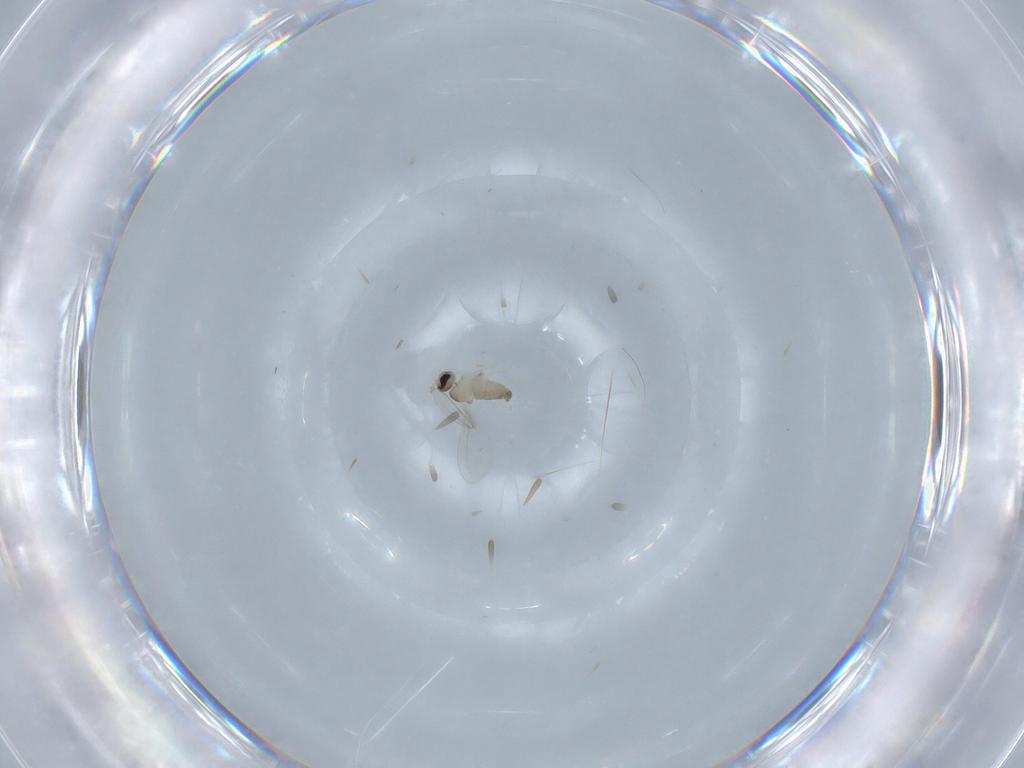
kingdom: Animalia
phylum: Arthropoda
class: Insecta
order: Diptera
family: Cecidomyiidae
